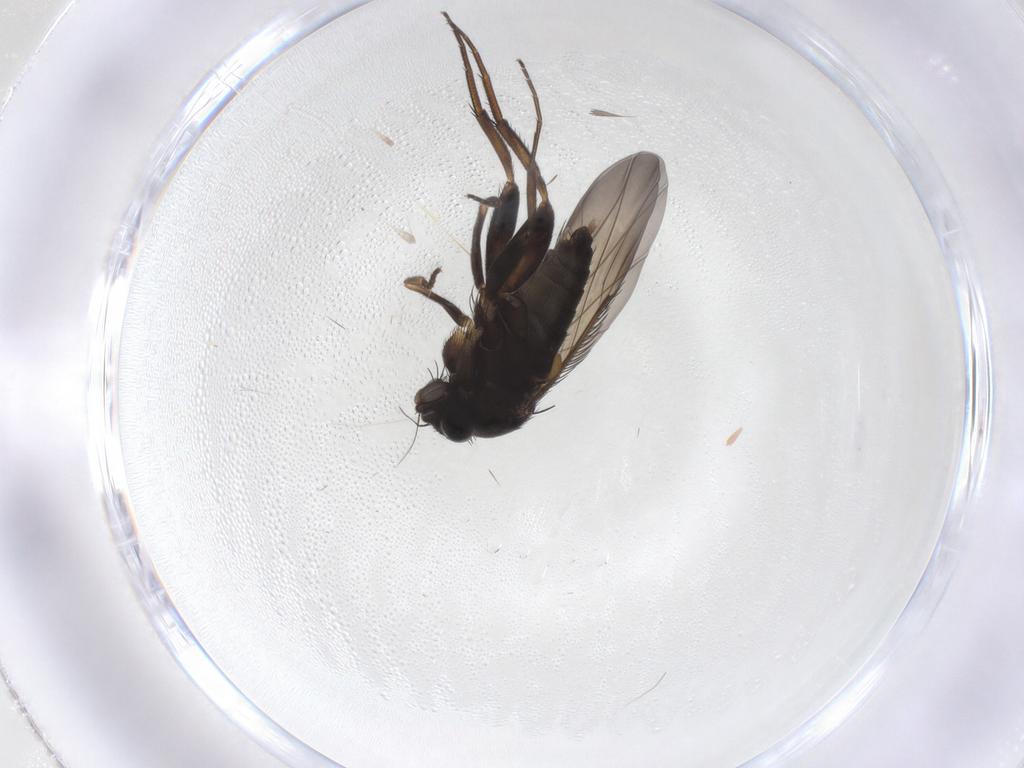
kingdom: Animalia
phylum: Arthropoda
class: Insecta
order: Diptera
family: Phoridae
